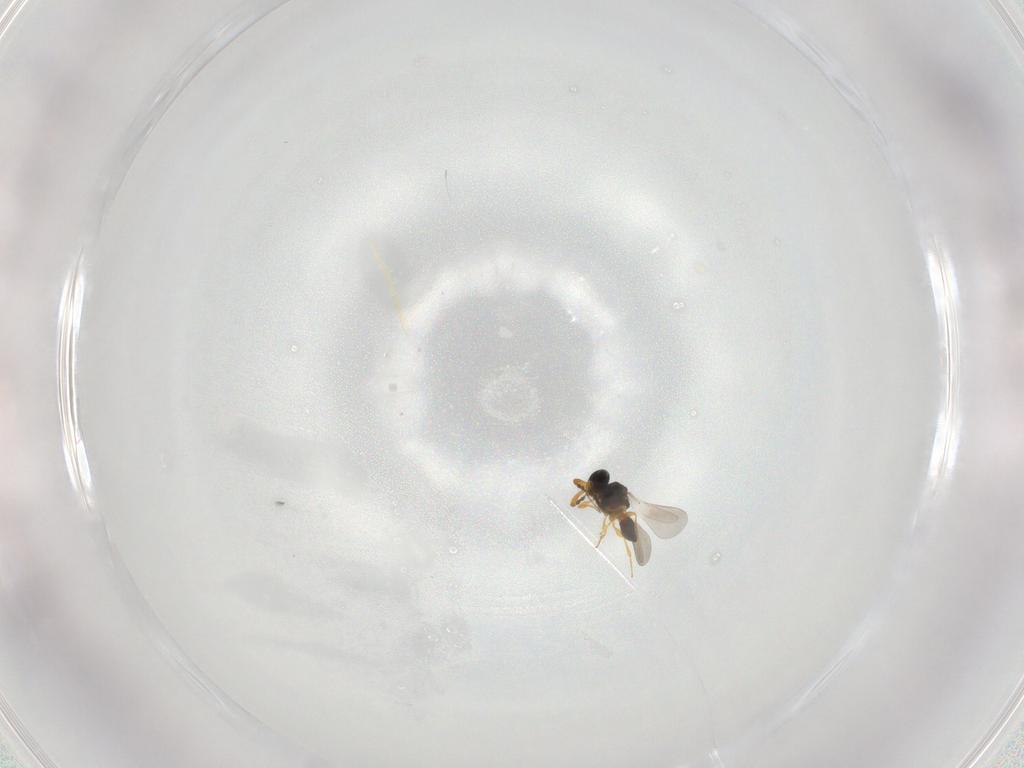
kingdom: Animalia
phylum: Arthropoda
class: Insecta
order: Hymenoptera
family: Platygastridae
